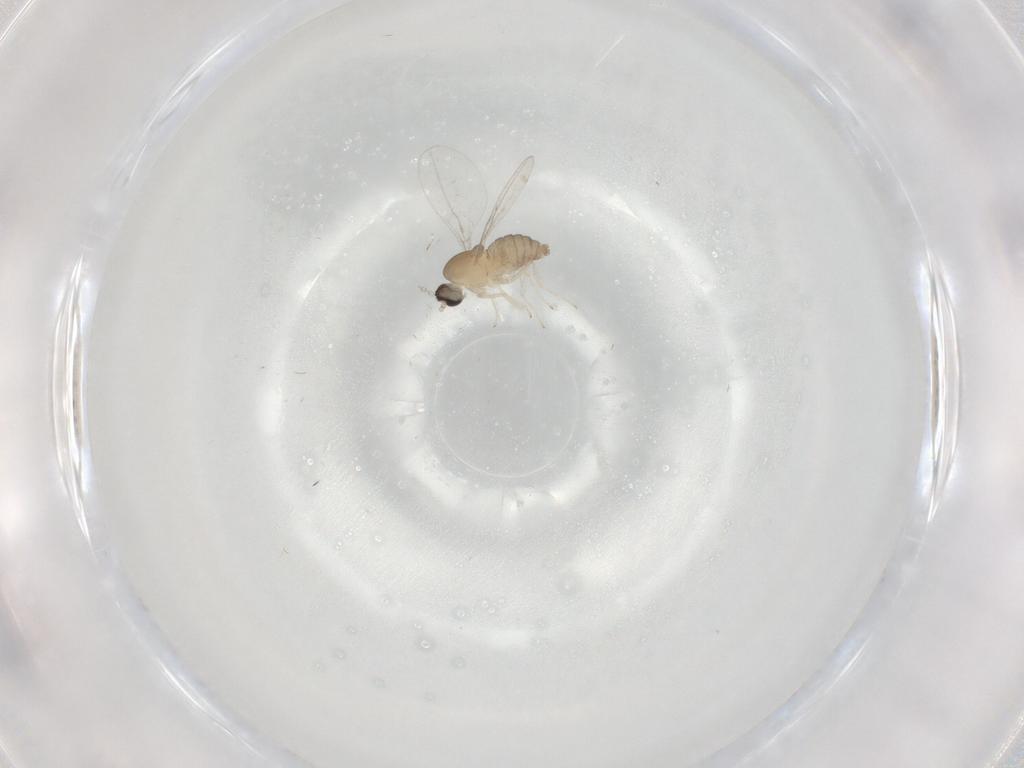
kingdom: Animalia
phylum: Arthropoda
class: Insecta
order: Diptera
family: Cecidomyiidae
